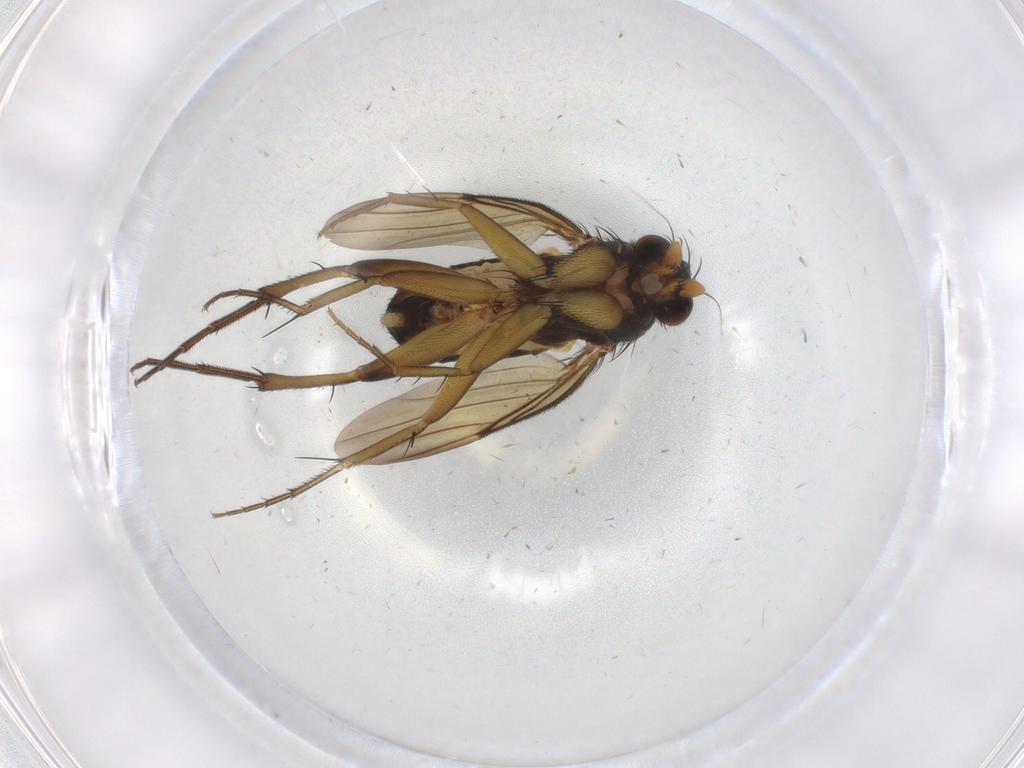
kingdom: Animalia
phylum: Arthropoda
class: Insecta
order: Diptera
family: Phoridae
